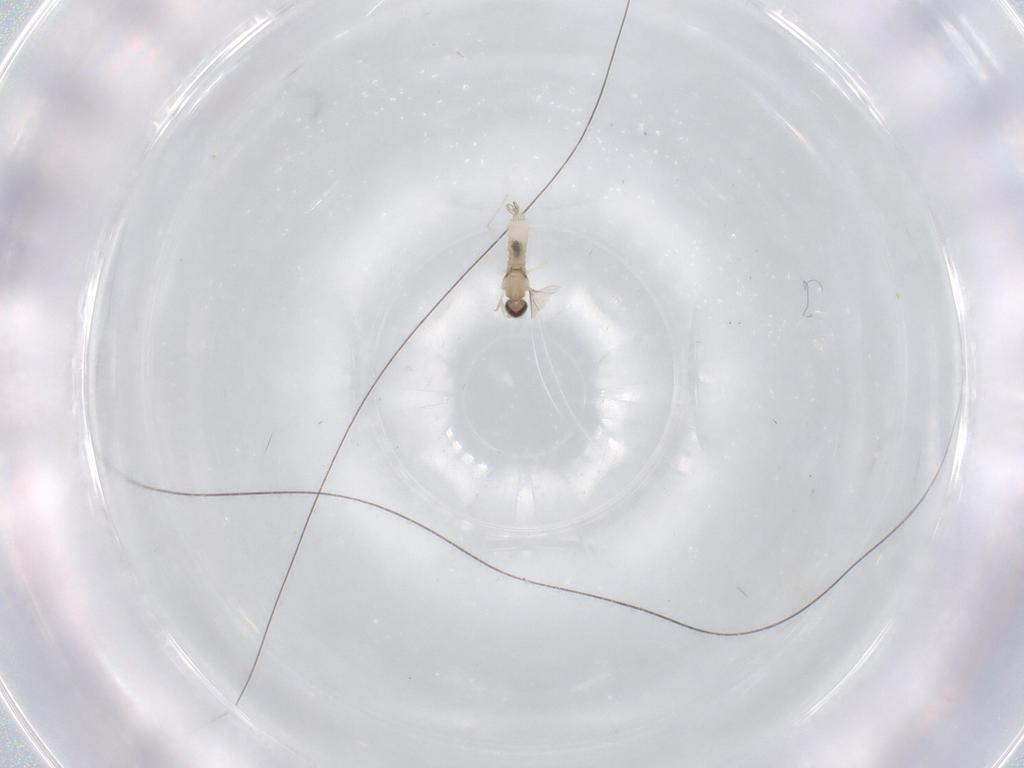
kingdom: Animalia
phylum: Arthropoda
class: Insecta
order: Diptera
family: Cecidomyiidae
